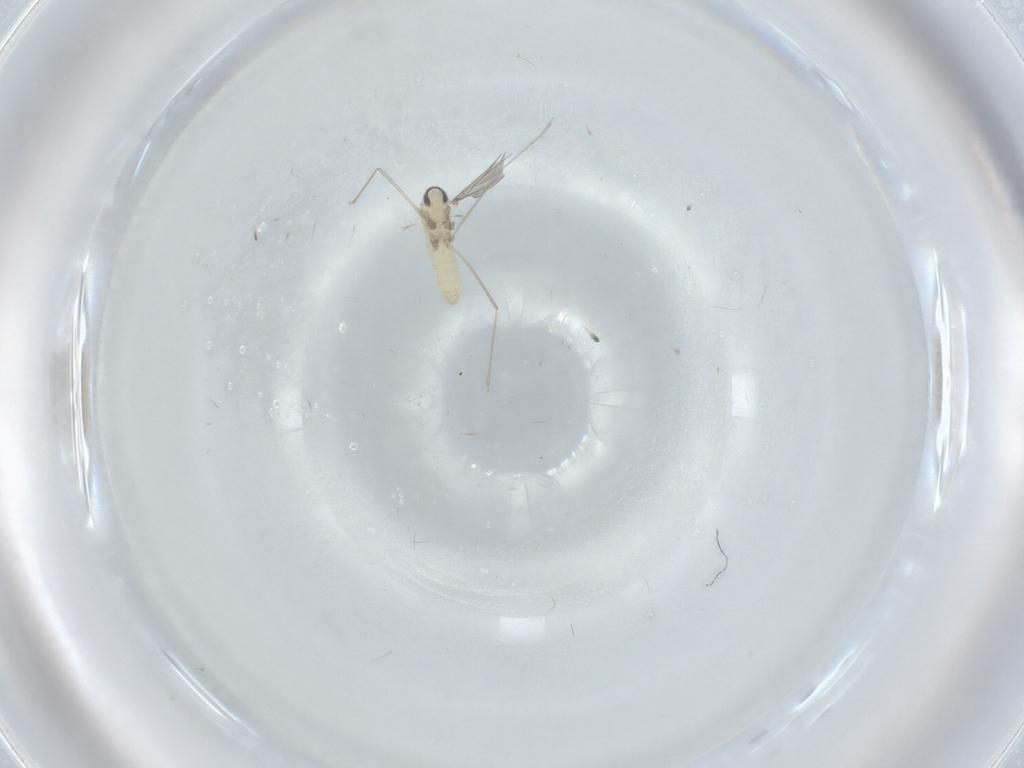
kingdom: Animalia
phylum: Arthropoda
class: Insecta
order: Diptera
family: Cecidomyiidae
